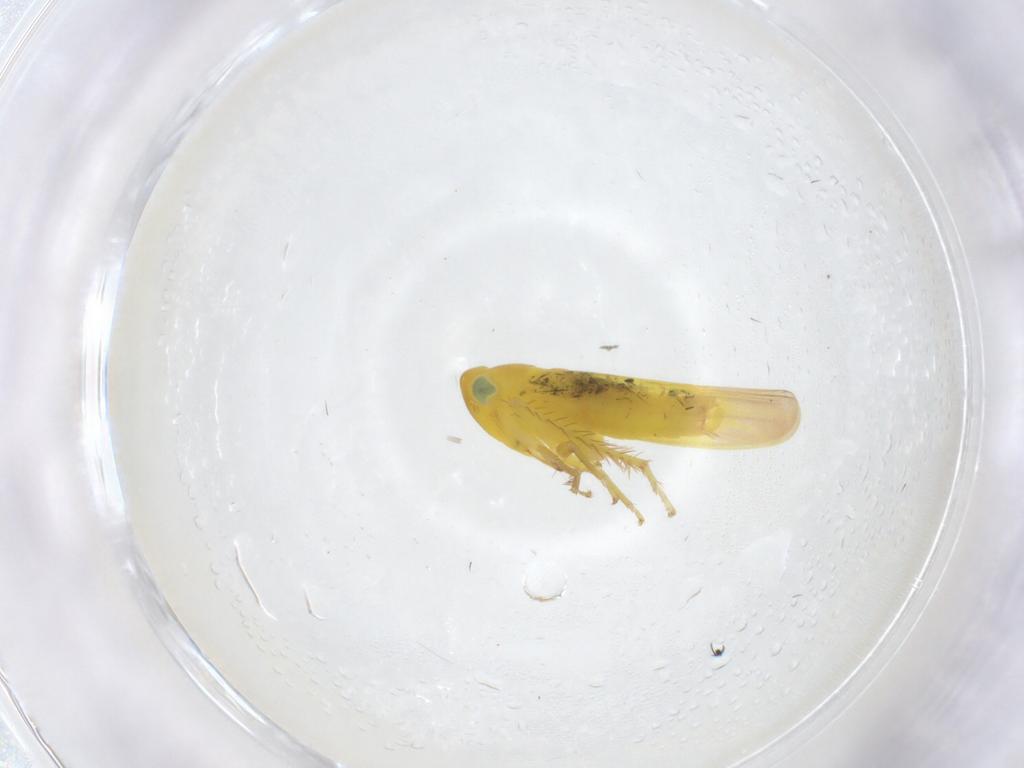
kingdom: Animalia
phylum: Arthropoda
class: Insecta
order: Hemiptera
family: Cicadellidae
